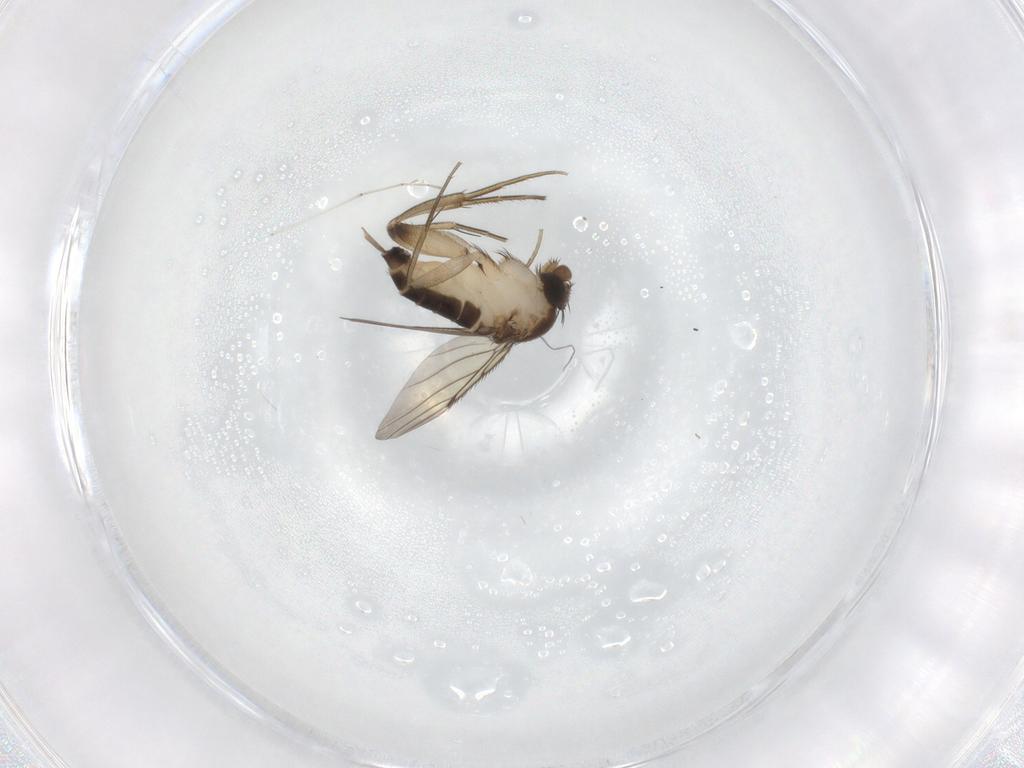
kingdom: Animalia
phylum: Arthropoda
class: Insecta
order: Diptera
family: Phoridae
